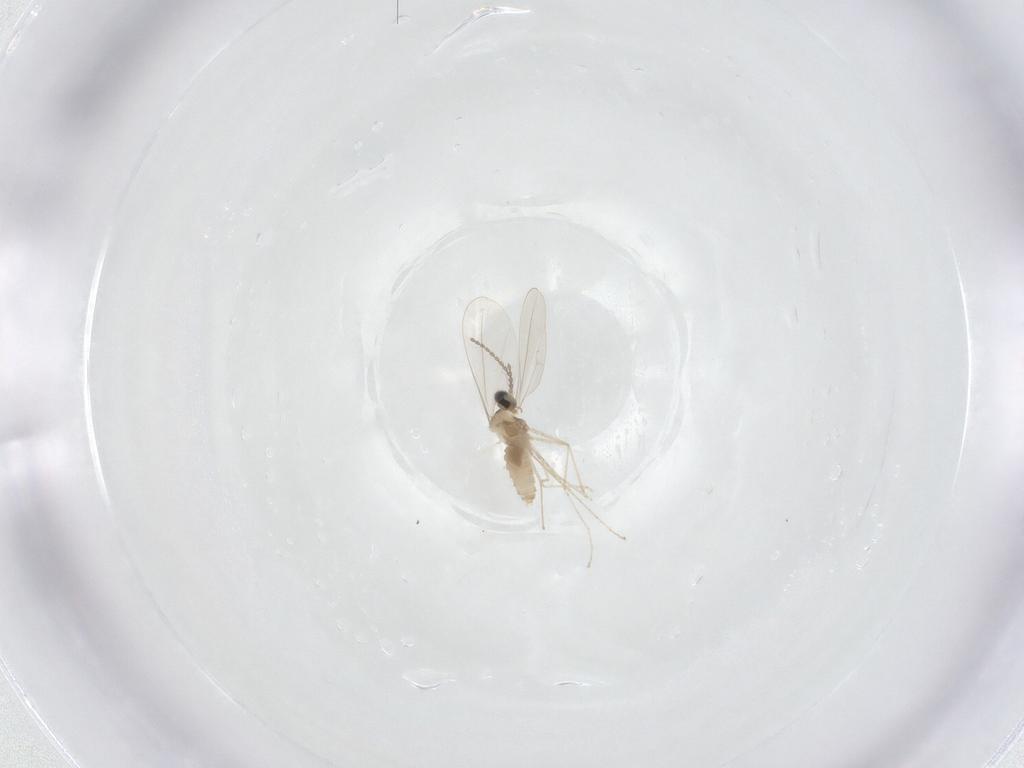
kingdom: Animalia
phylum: Arthropoda
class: Insecta
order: Diptera
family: Cecidomyiidae
